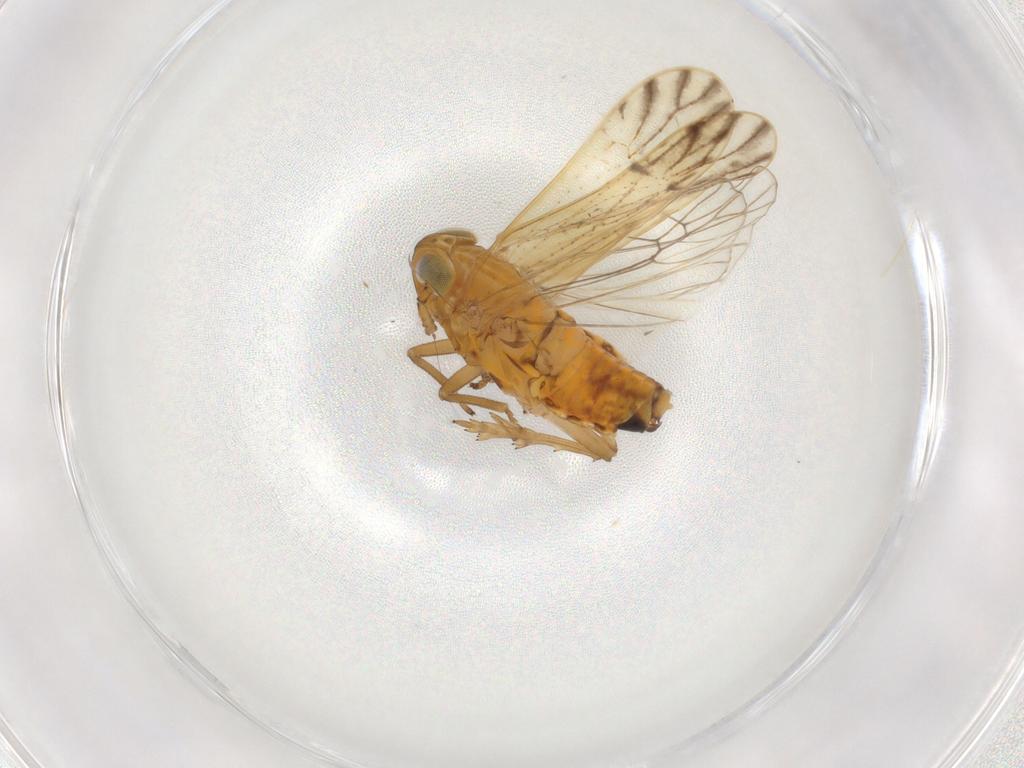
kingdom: Animalia
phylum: Arthropoda
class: Insecta
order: Hemiptera
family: Delphacidae
